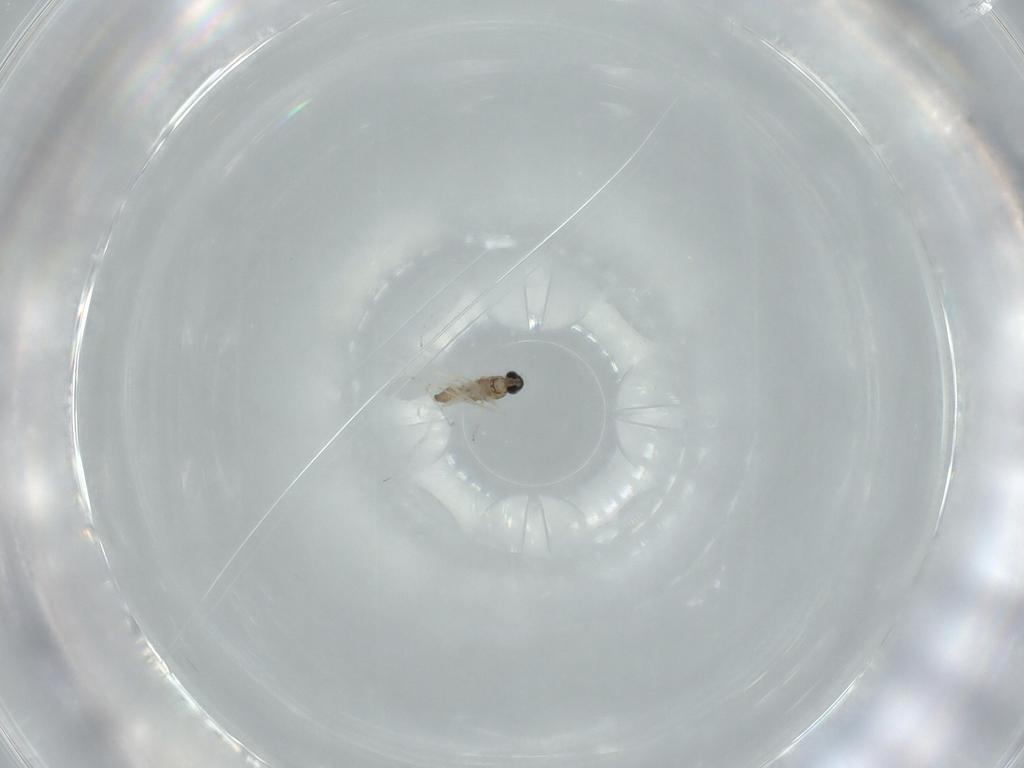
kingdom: Animalia
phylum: Arthropoda
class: Insecta
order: Diptera
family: Cecidomyiidae
